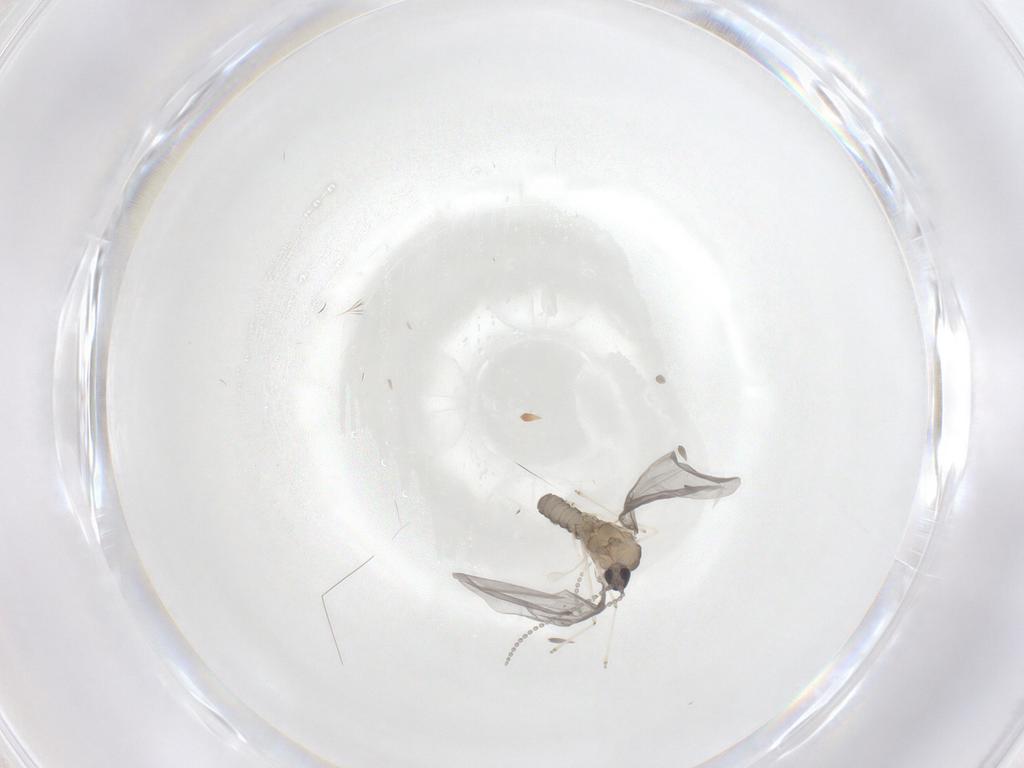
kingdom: Animalia
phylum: Arthropoda
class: Insecta
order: Diptera
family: Cecidomyiidae
